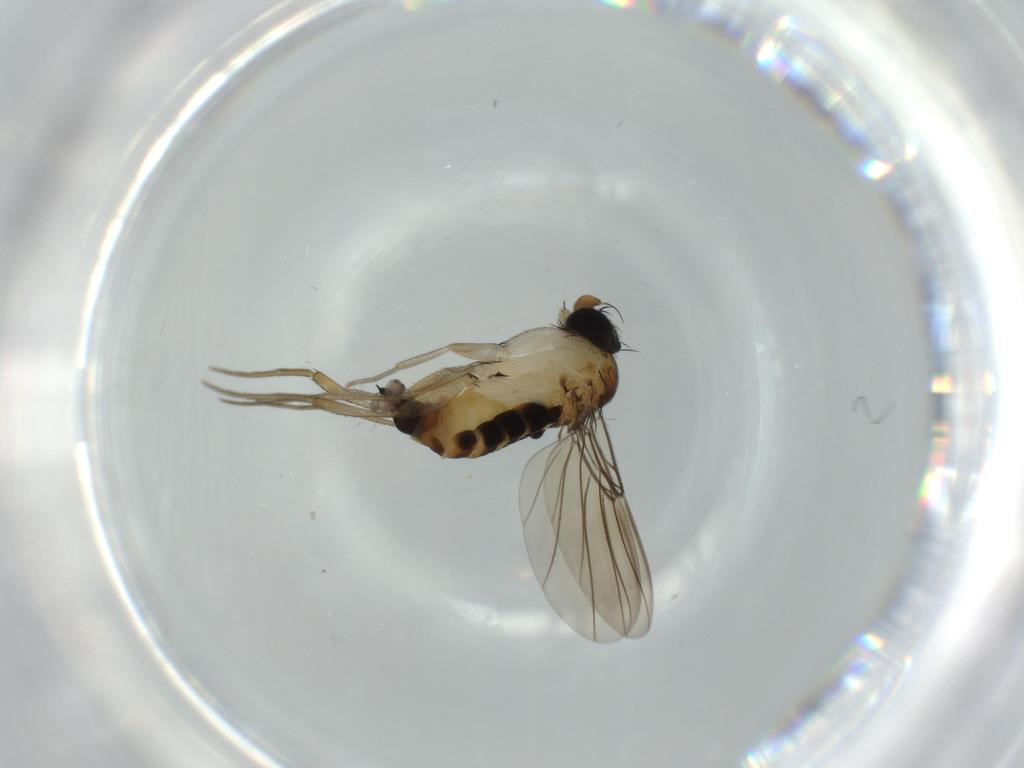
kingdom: Animalia
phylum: Arthropoda
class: Insecta
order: Diptera
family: Phoridae
